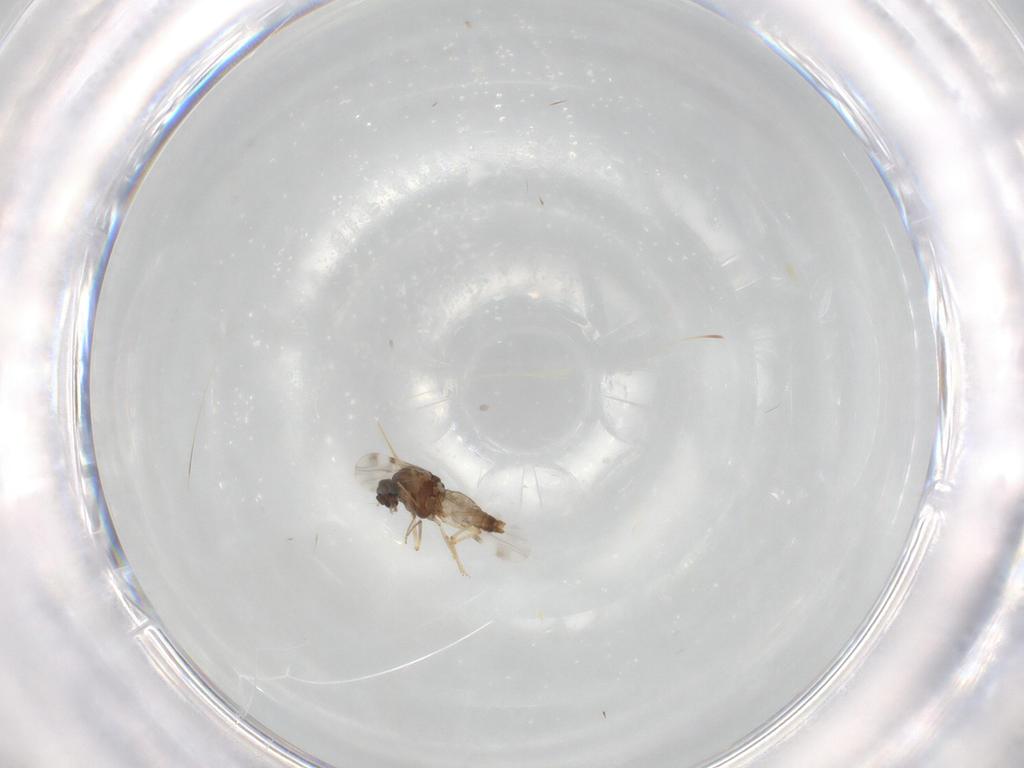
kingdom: Animalia
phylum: Arthropoda
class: Insecta
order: Diptera
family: Ceratopogonidae
